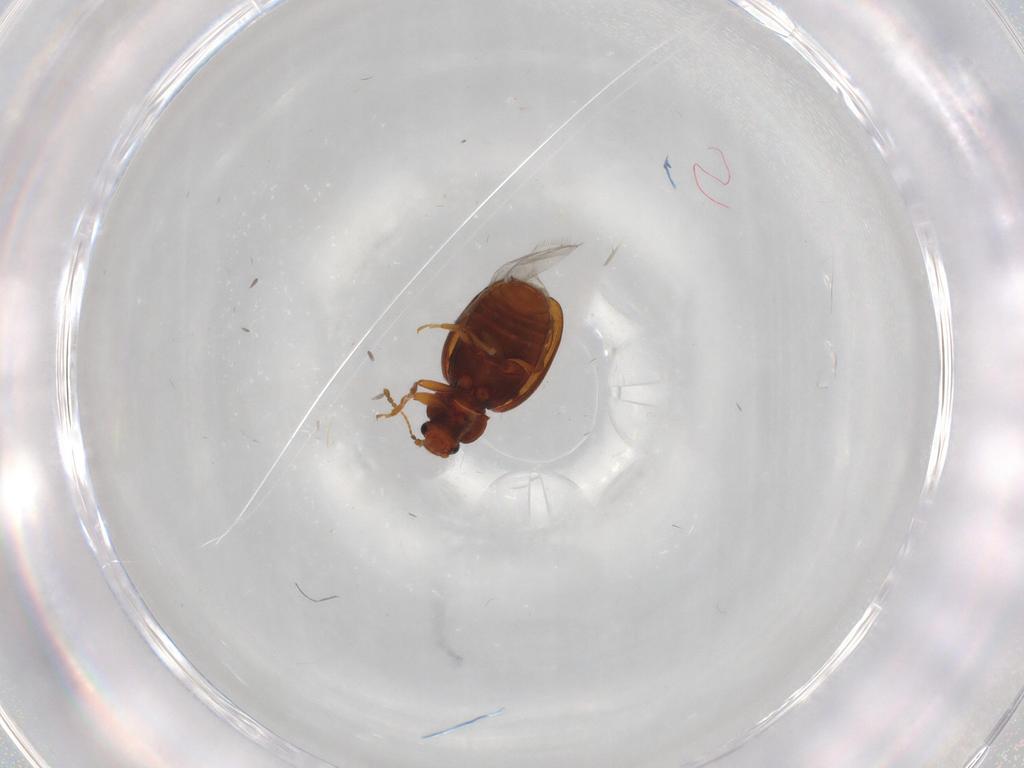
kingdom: Animalia
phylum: Arthropoda
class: Insecta
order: Coleoptera
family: Latridiidae
